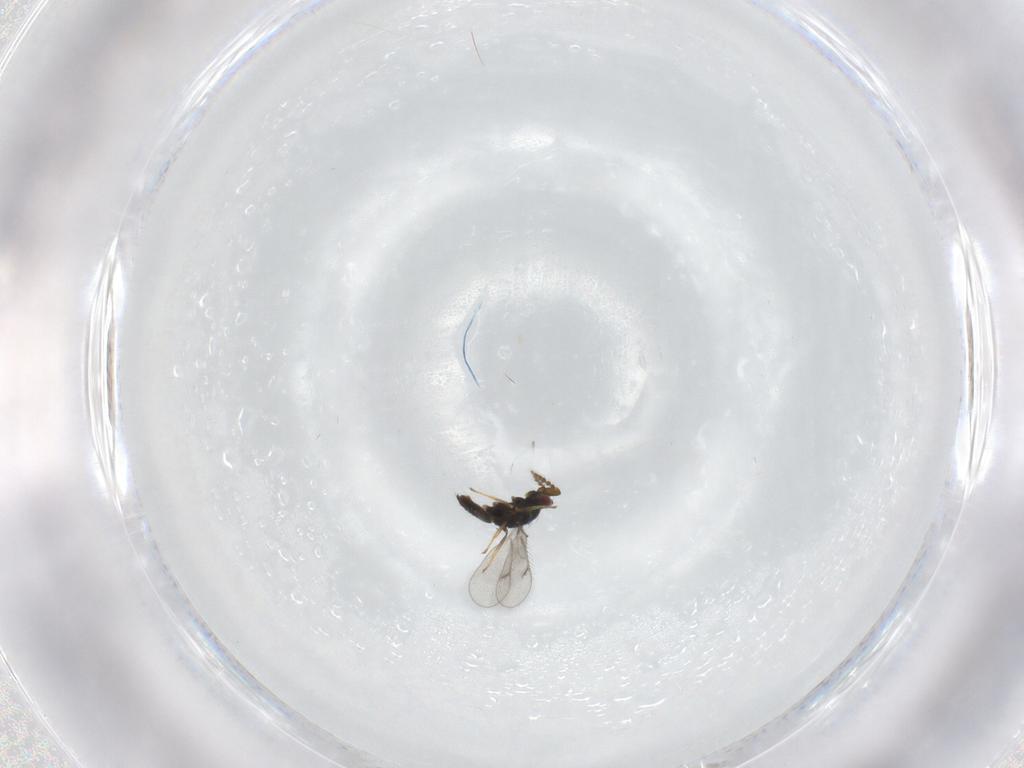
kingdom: Animalia
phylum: Arthropoda
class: Insecta
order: Hymenoptera
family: Eulophidae
